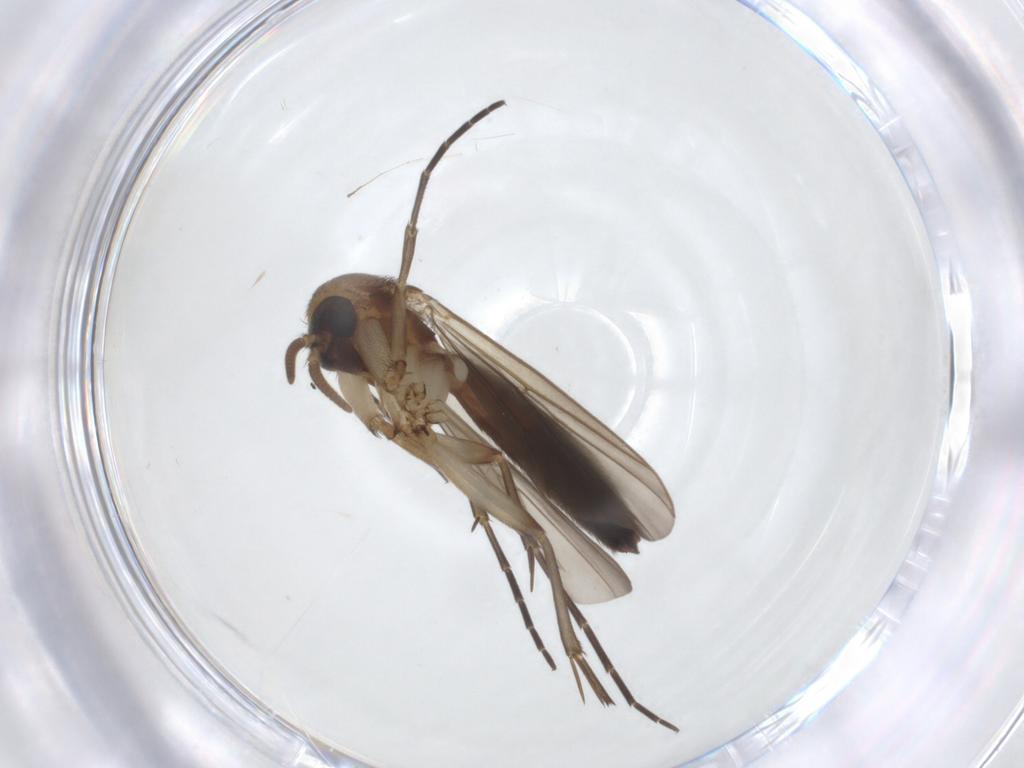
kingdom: Animalia
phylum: Arthropoda
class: Insecta
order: Diptera
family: Mycetophilidae
